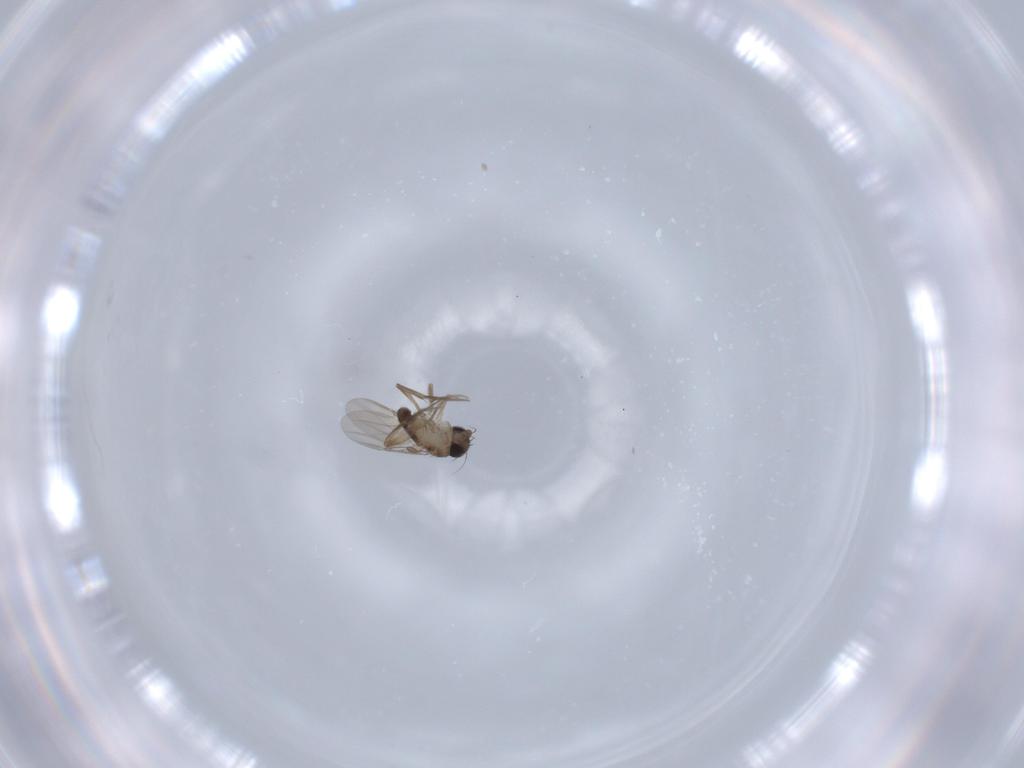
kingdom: Animalia
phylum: Arthropoda
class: Insecta
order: Diptera
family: Phoridae
